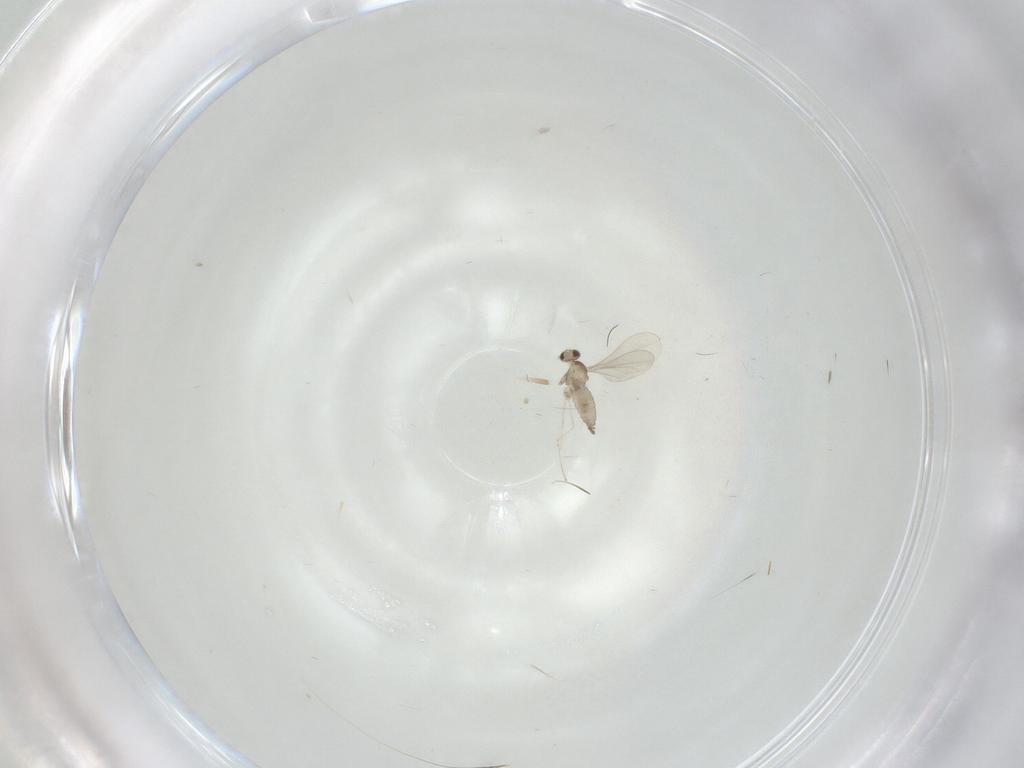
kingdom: Animalia
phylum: Arthropoda
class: Insecta
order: Diptera
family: Cecidomyiidae
